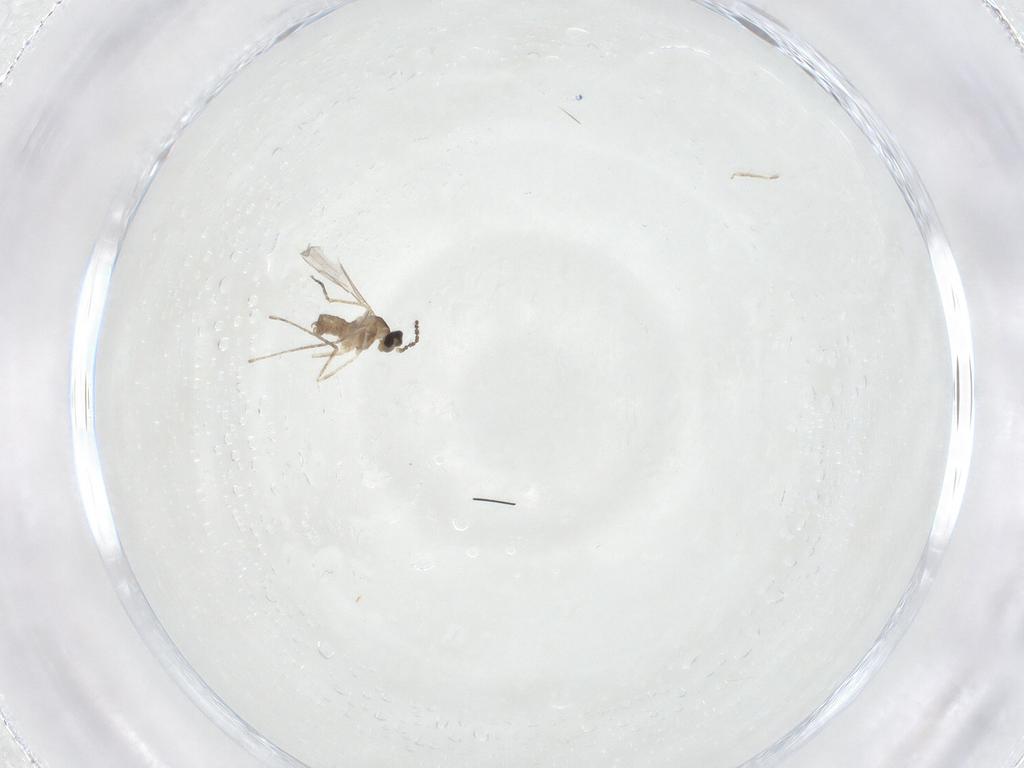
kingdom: Animalia
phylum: Arthropoda
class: Insecta
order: Diptera
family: Cecidomyiidae
